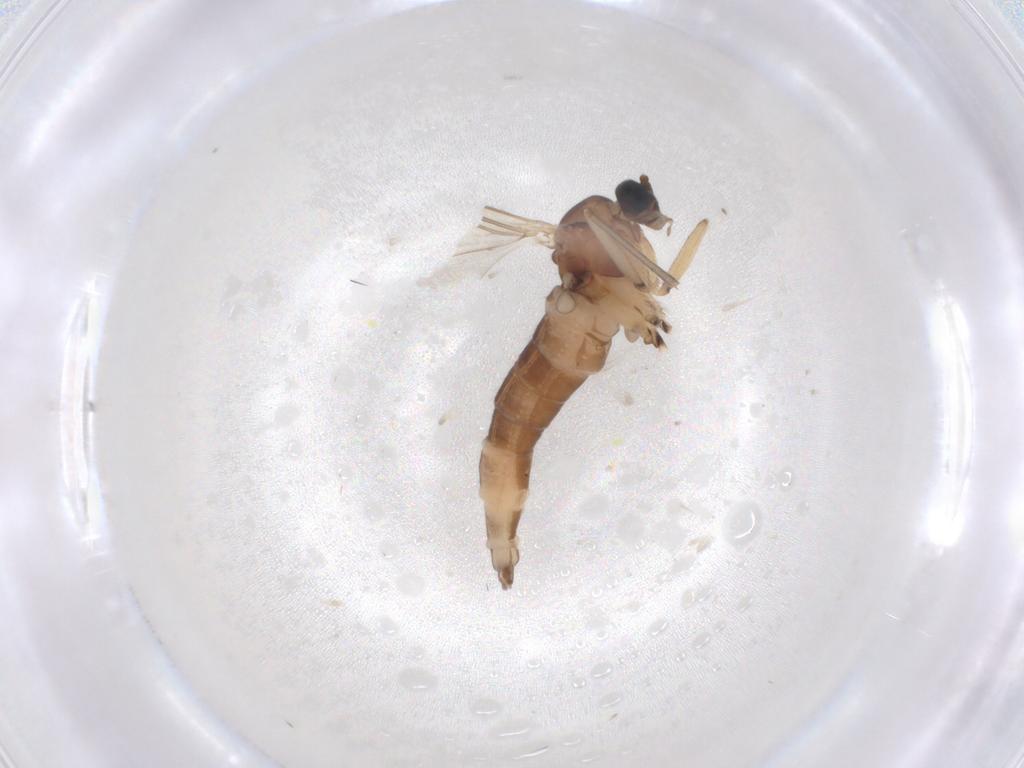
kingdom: Animalia
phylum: Arthropoda
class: Insecta
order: Diptera
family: Sciaridae
